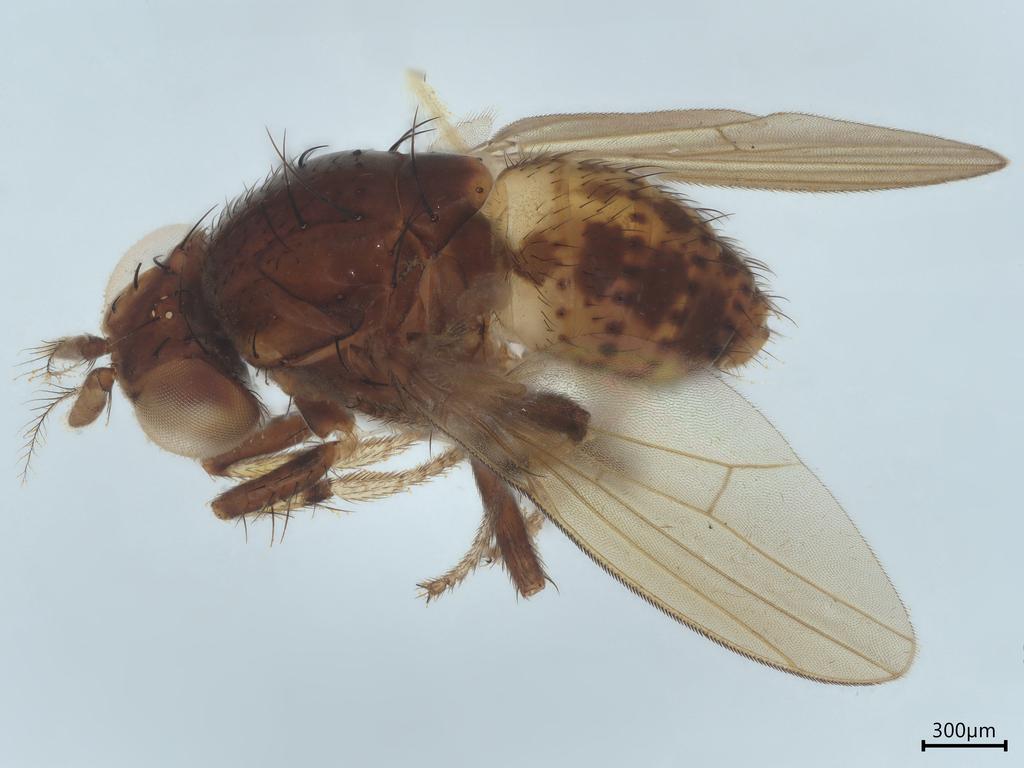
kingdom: Animalia
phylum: Arthropoda
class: Insecta
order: Diptera
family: Chironomidae
